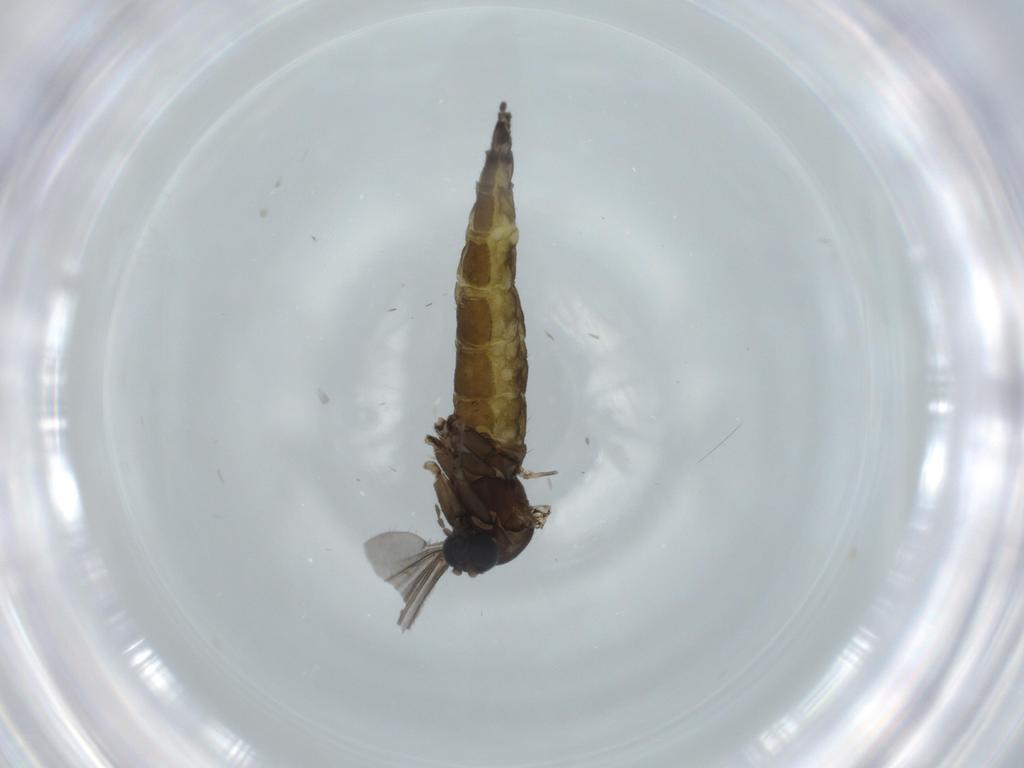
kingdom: Animalia
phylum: Arthropoda
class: Insecta
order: Diptera
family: Sciaridae
